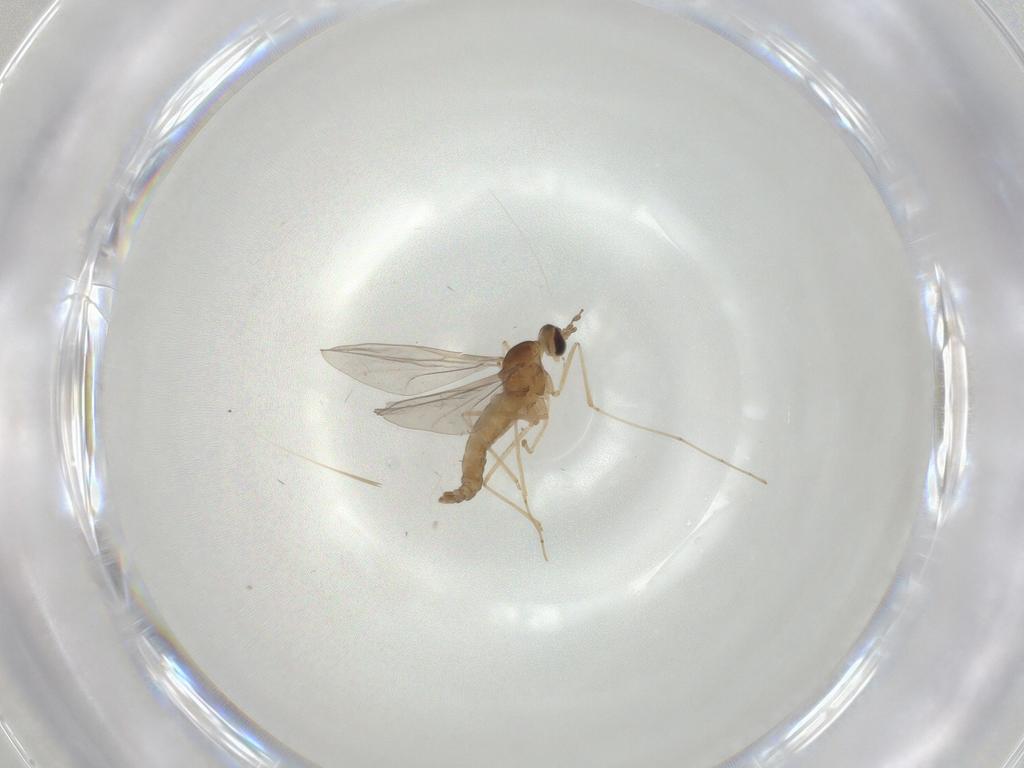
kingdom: Animalia
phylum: Arthropoda
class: Insecta
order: Diptera
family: Cecidomyiidae
